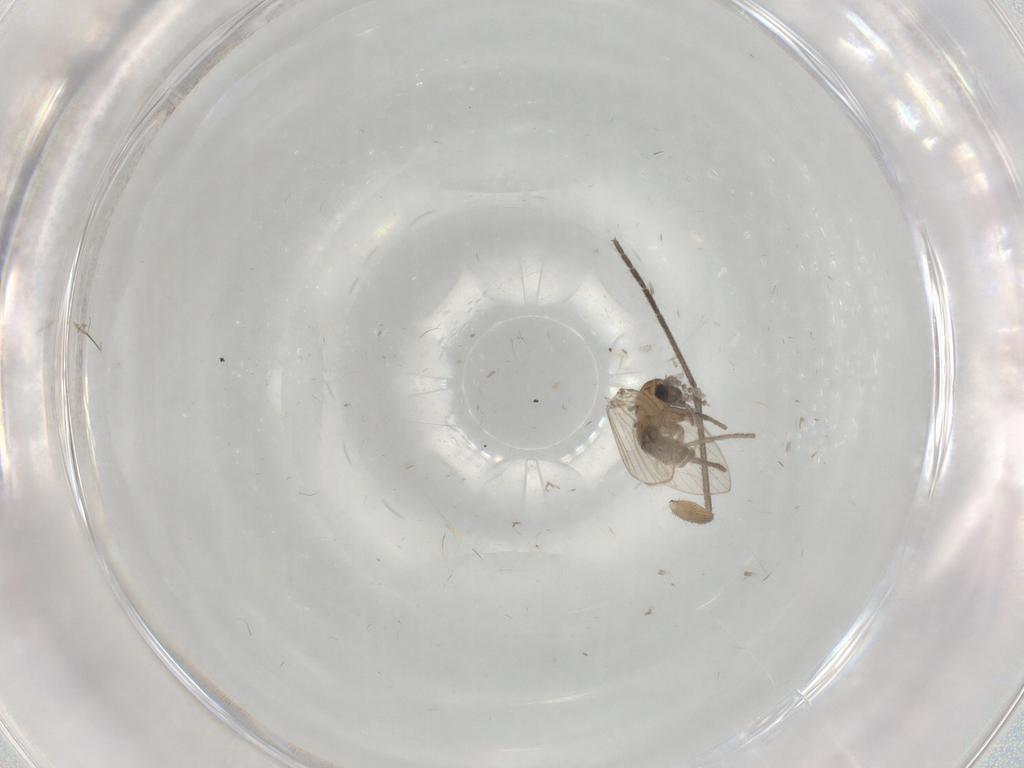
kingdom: Animalia
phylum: Arthropoda
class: Insecta
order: Diptera
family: Psychodidae
